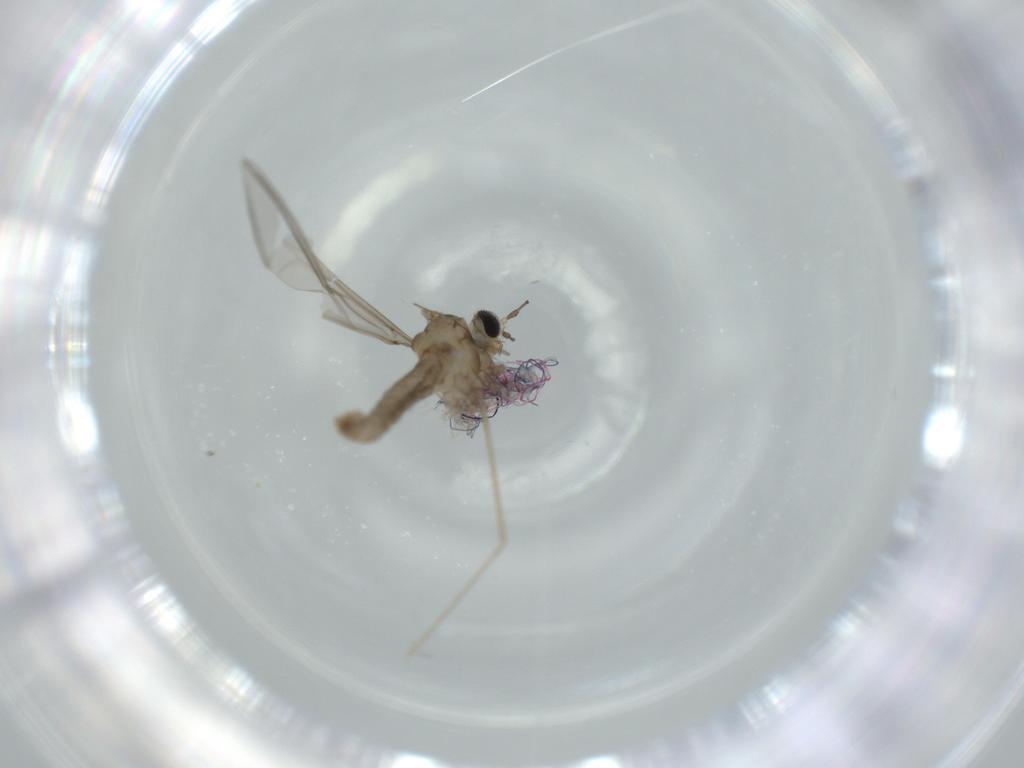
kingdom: Animalia
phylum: Arthropoda
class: Insecta
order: Diptera
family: Cecidomyiidae
